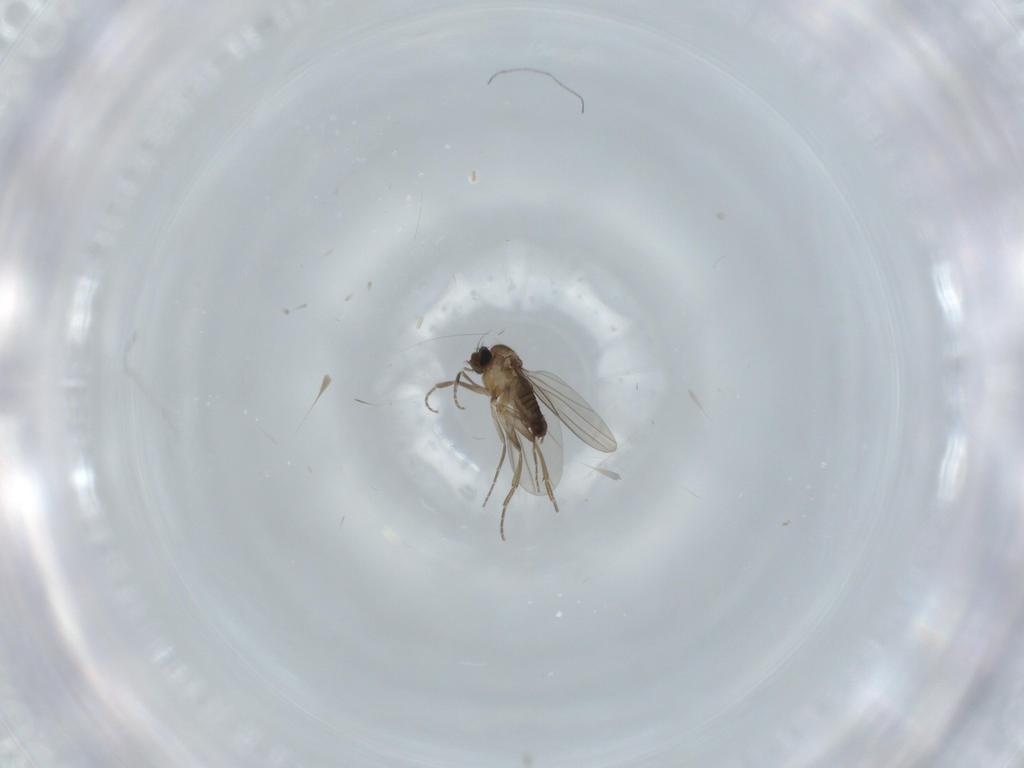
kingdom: Animalia
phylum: Arthropoda
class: Insecta
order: Diptera
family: Phoridae
